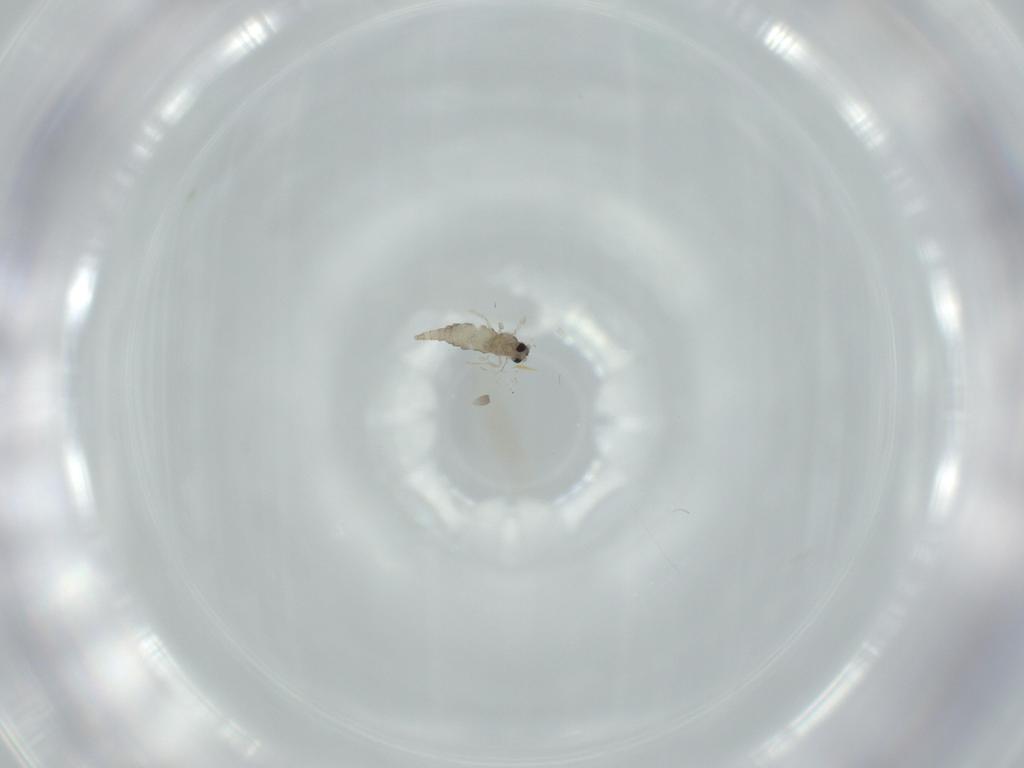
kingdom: Animalia
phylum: Arthropoda
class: Insecta
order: Diptera
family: Cecidomyiidae
